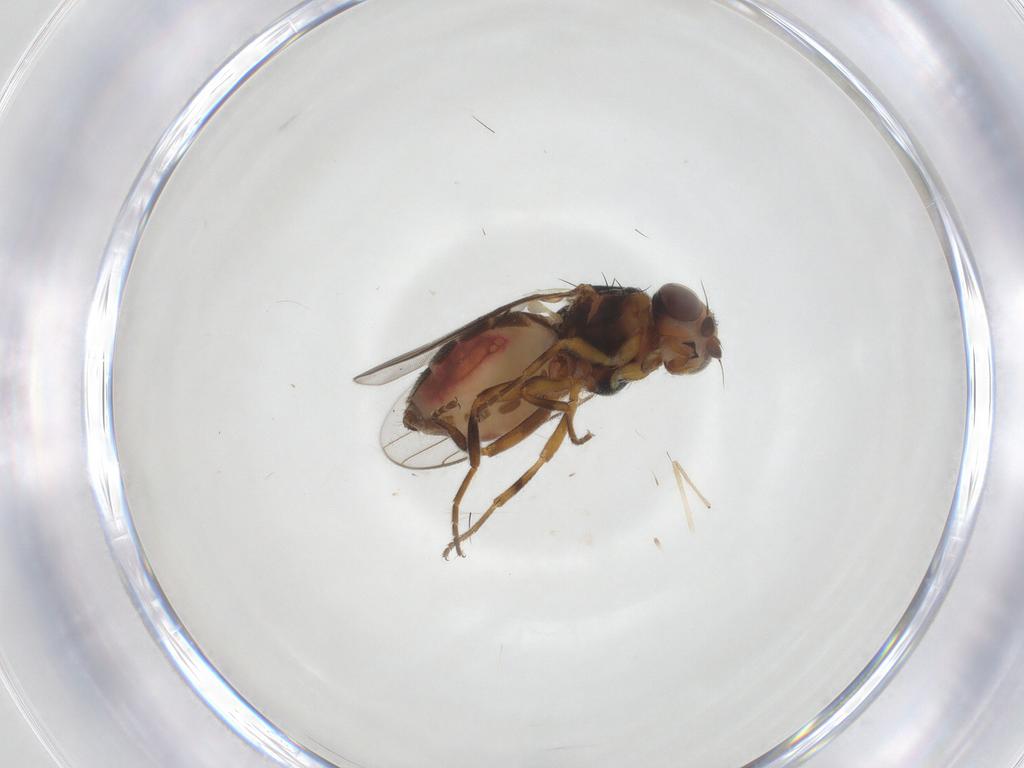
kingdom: Animalia
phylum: Arthropoda
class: Insecta
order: Diptera
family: Chloropidae
